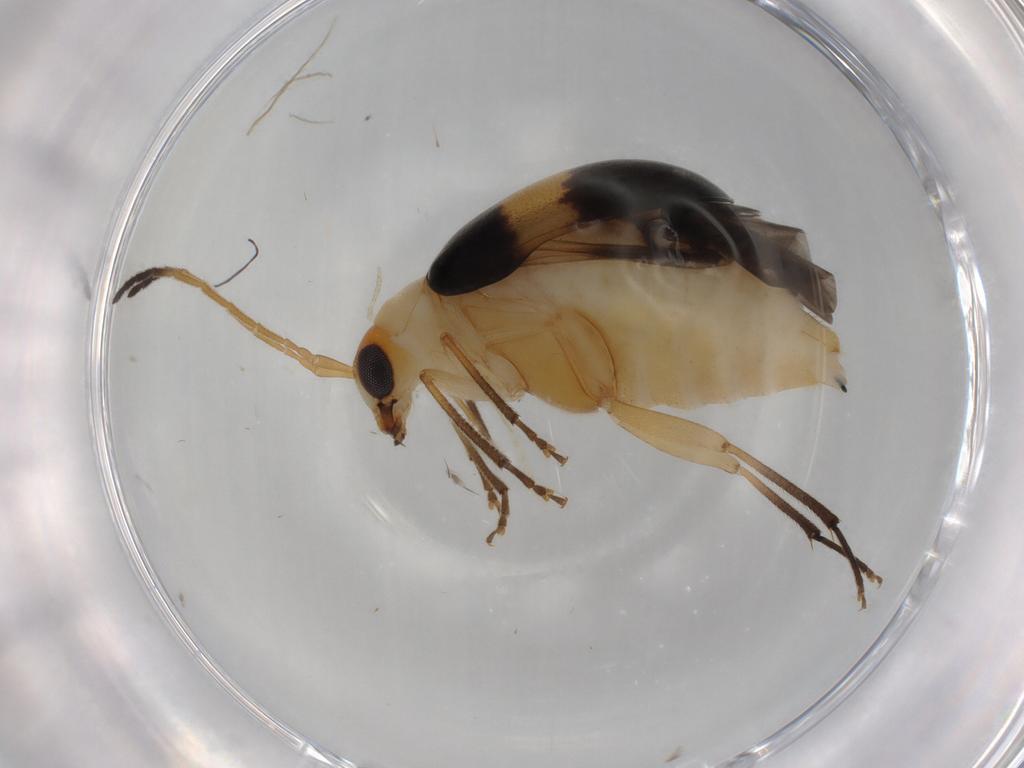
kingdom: Animalia
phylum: Arthropoda
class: Insecta
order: Coleoptera
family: Chrysomelidae
